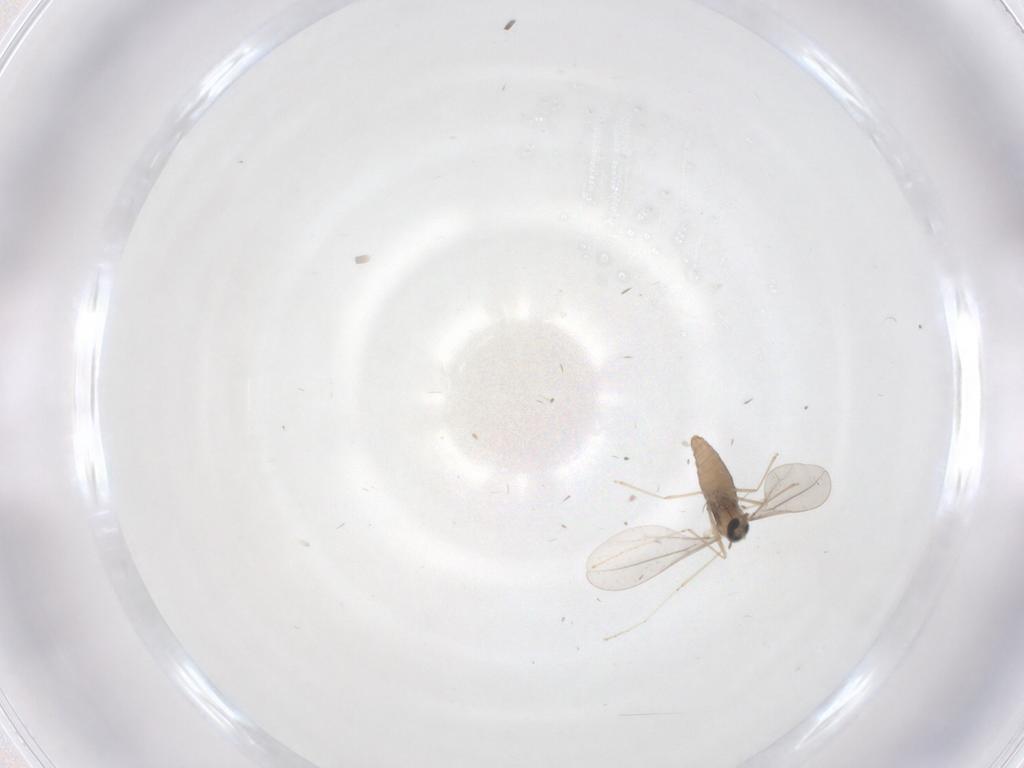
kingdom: Animalia
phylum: Arthropoda
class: Insecta
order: Diptera
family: Cecidomyiidae
